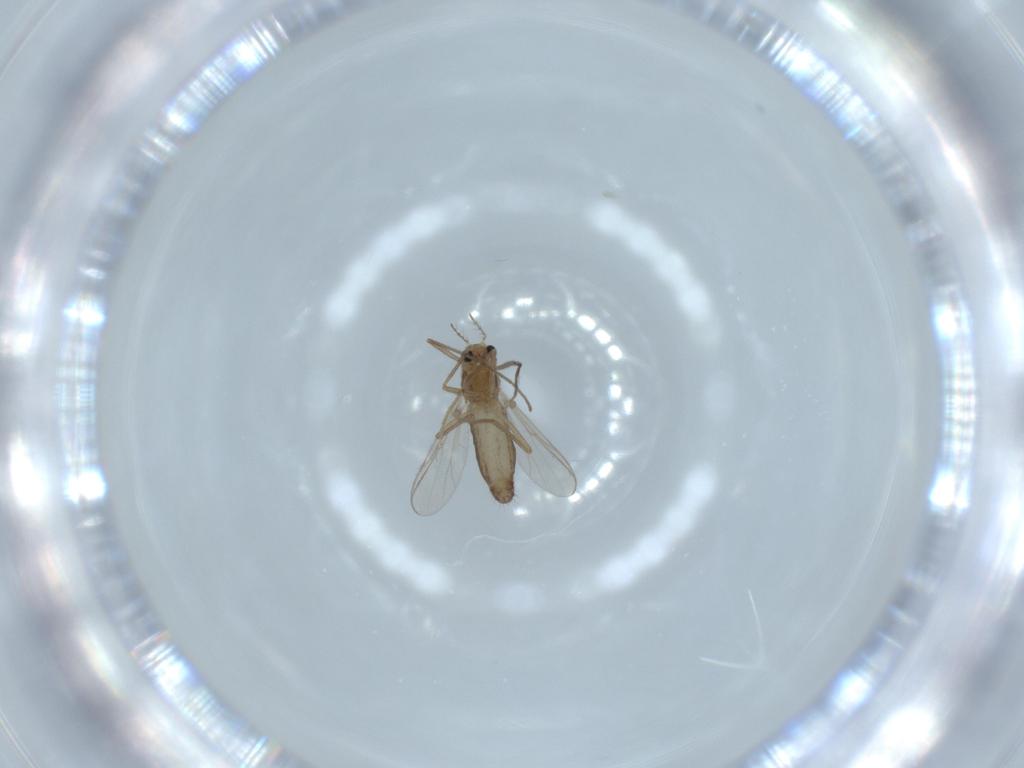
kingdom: Animalia
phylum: Arthropoda
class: Insecta
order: Diptera
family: Chironomidae
